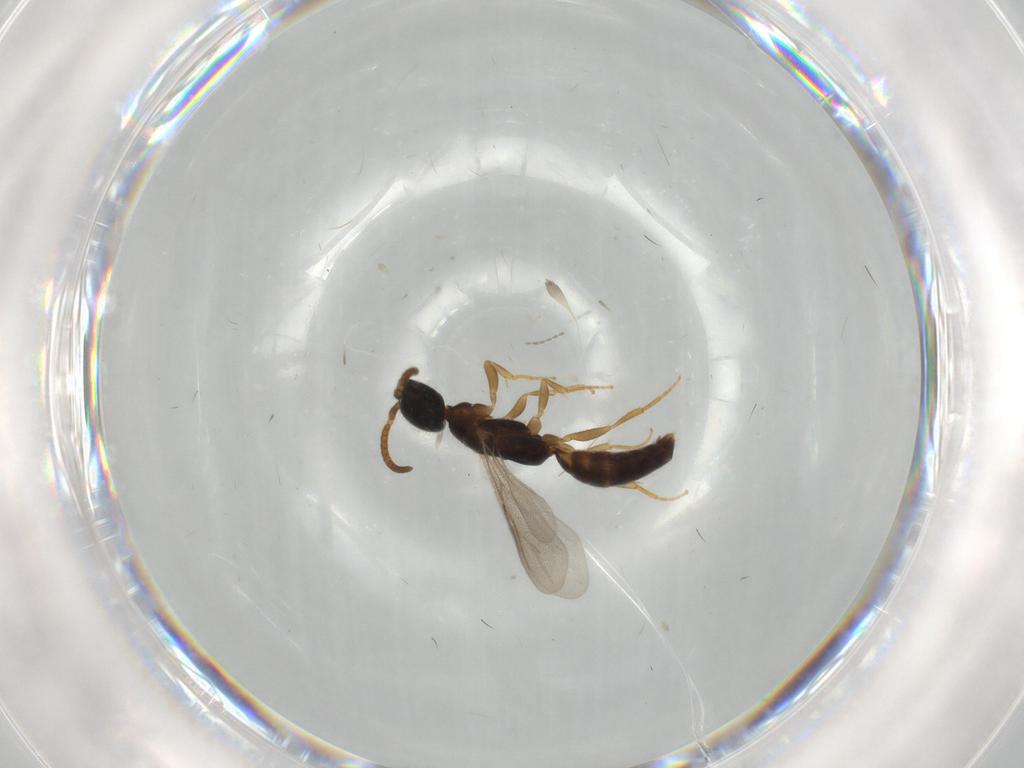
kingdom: Animalia
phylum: Arthropoda
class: Insecta
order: Hymenoptera
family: Bethylidae
